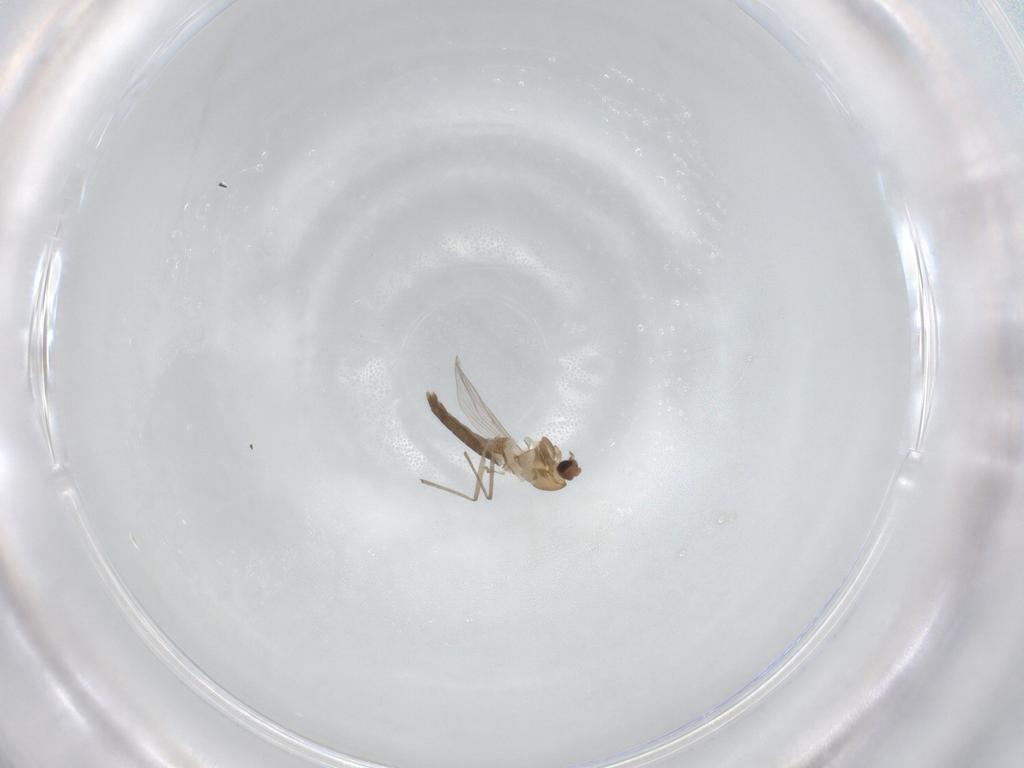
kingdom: Animalia
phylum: Arthropoda
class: Insecta
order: Diptera
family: Chironomidae
